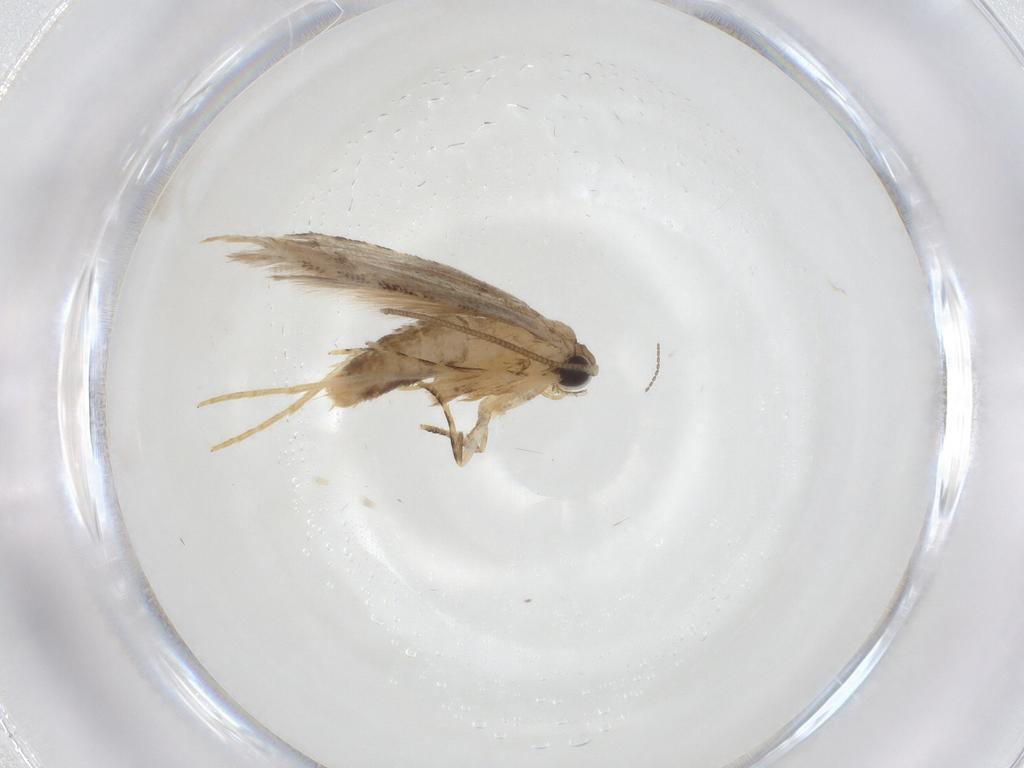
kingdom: Animalia
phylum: Arthropoda
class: Insecta
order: Lepidoptera
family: Tineidae
